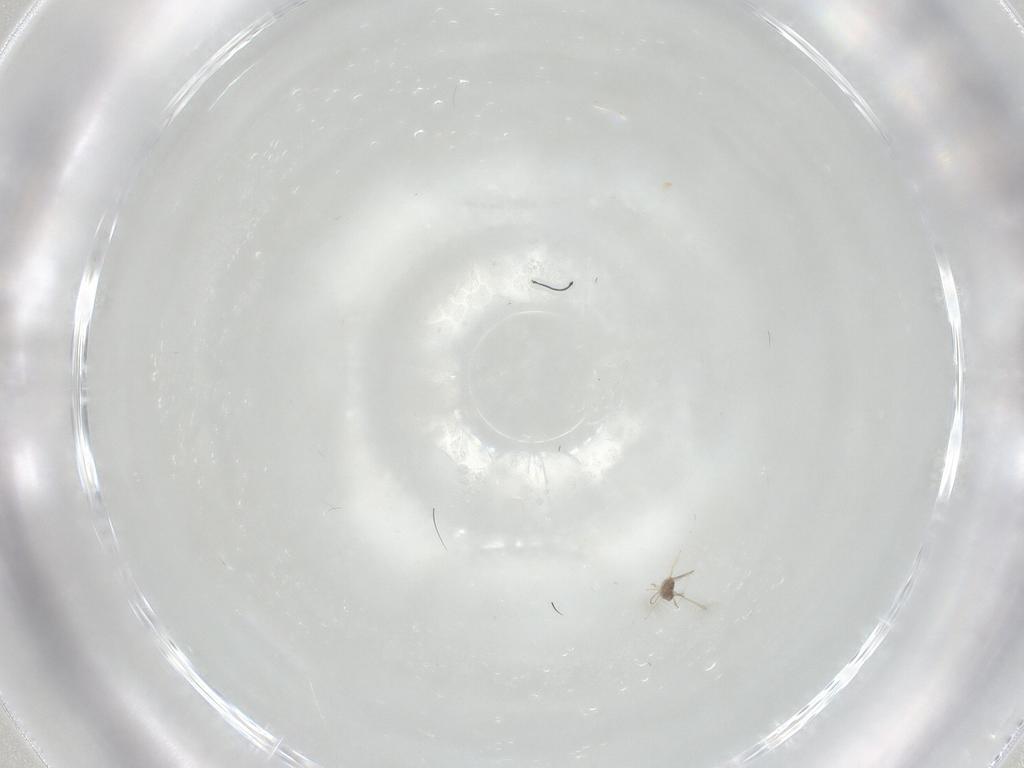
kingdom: Animalia
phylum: Arthropoda
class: Insecta
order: Hymenoptera
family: Mymaridae
